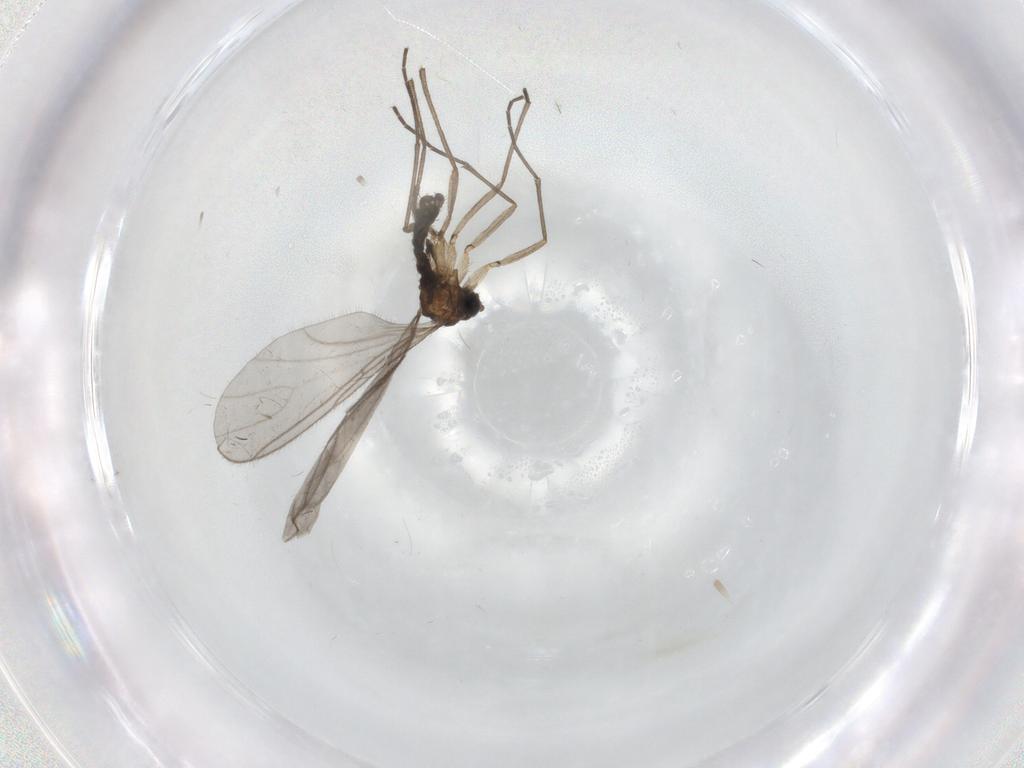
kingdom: Animalia
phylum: Arthropoda
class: Insecta
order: Diptera
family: Sciaridae
